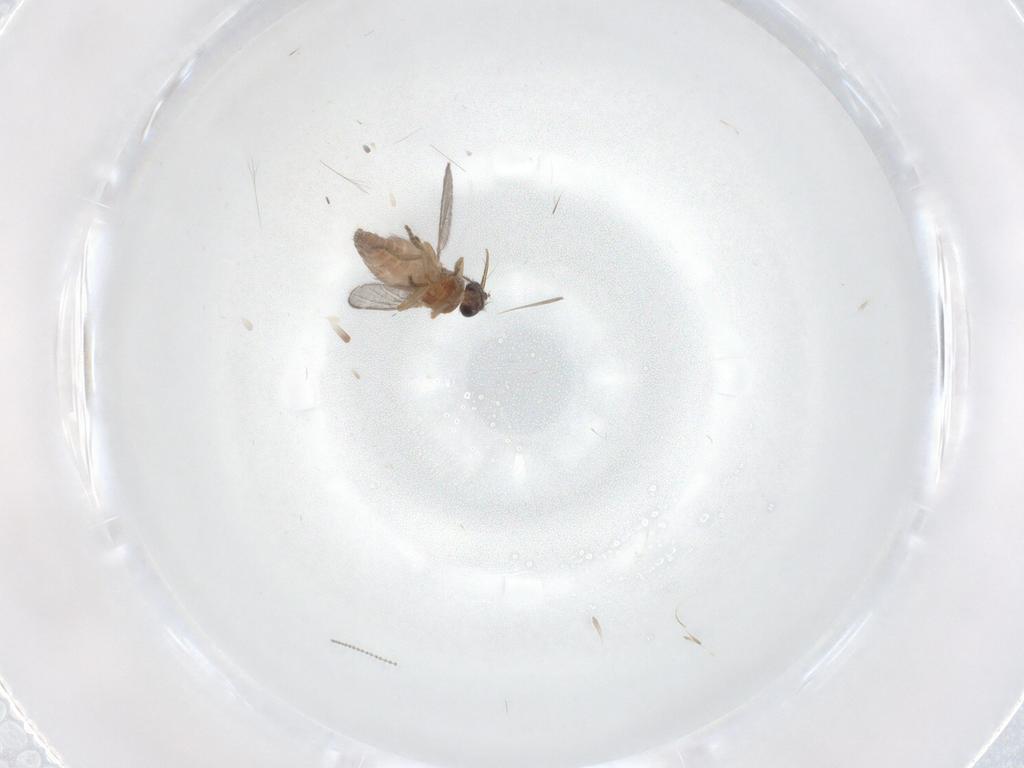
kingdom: Animalia
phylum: Arthropoda
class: Insecta
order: Diptera
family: Ceratopogonidae
